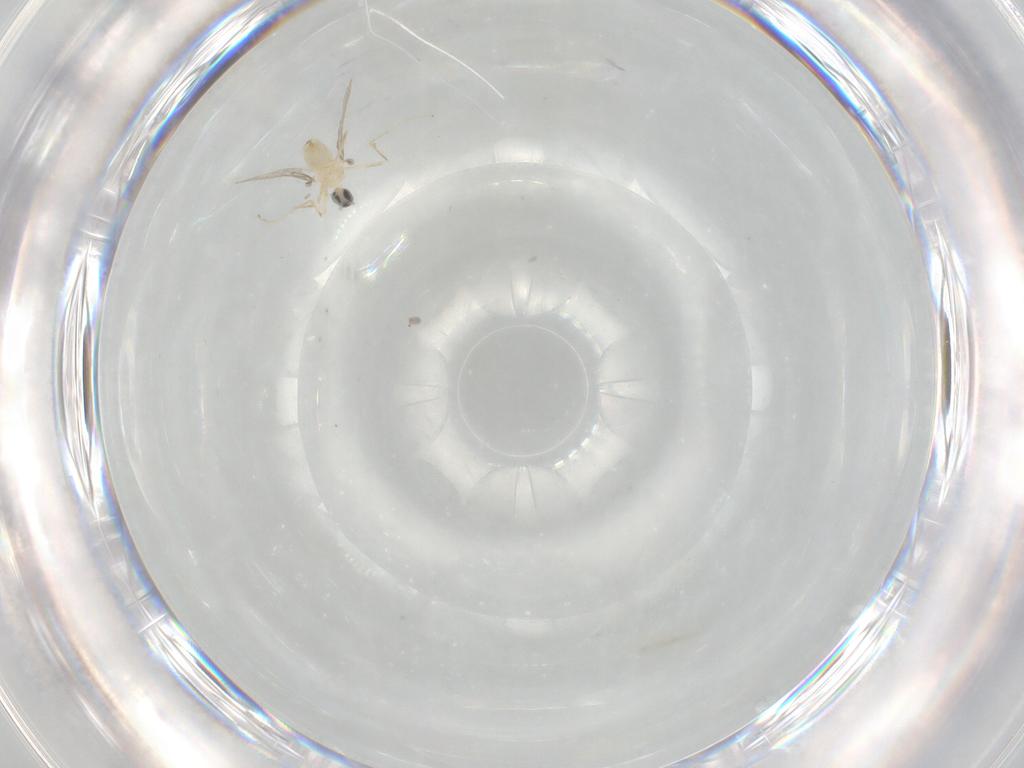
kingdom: Animalia
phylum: Arthropoda
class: Insecta
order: Diptera
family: Cecidomyiidae
